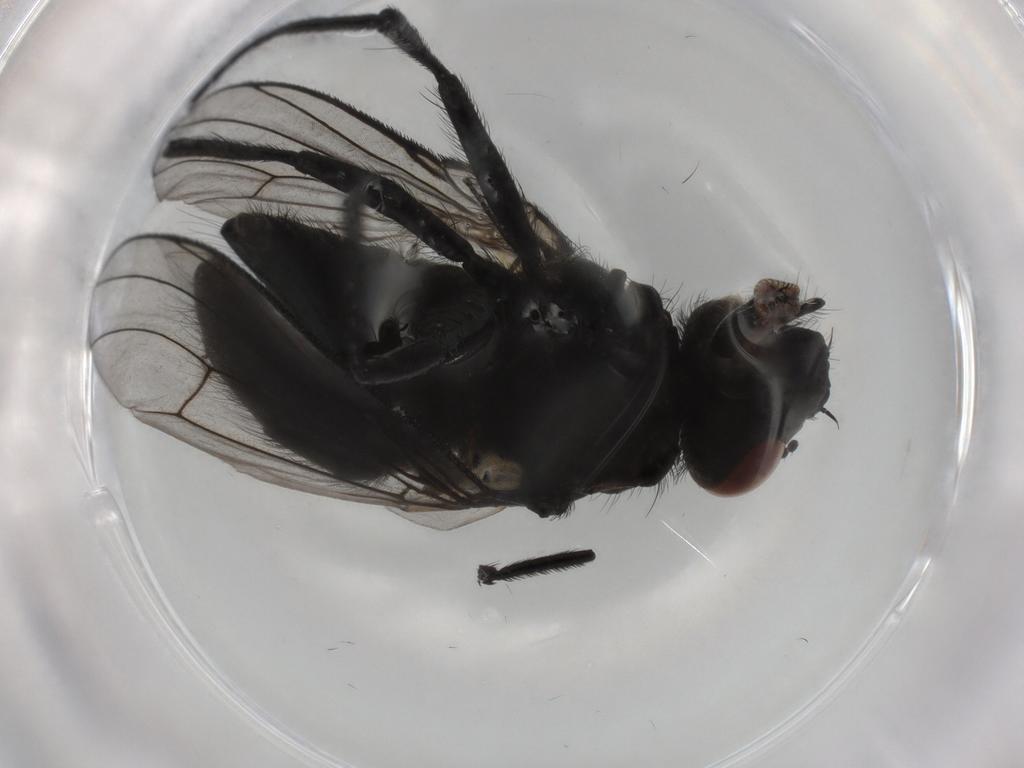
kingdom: Animalia
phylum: Arthropoda
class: Insecta
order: Diptera
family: Muscidae
